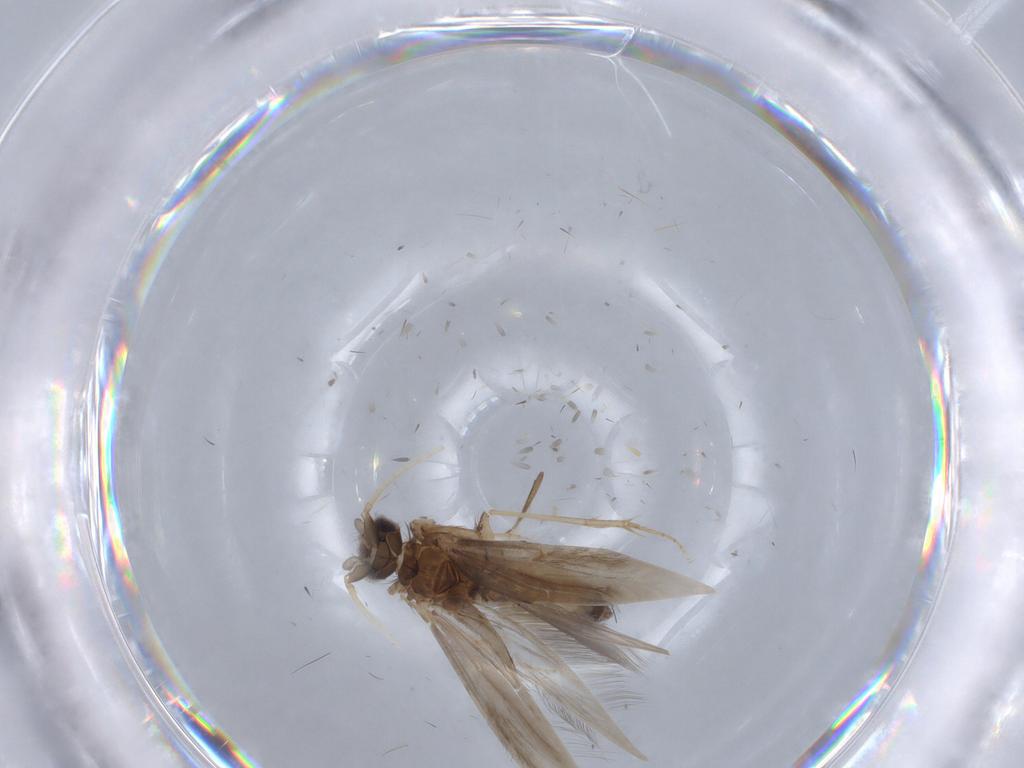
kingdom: Animalia
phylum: Arthropoda
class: Insecta
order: Trichoptera
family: Hydroptilidae
